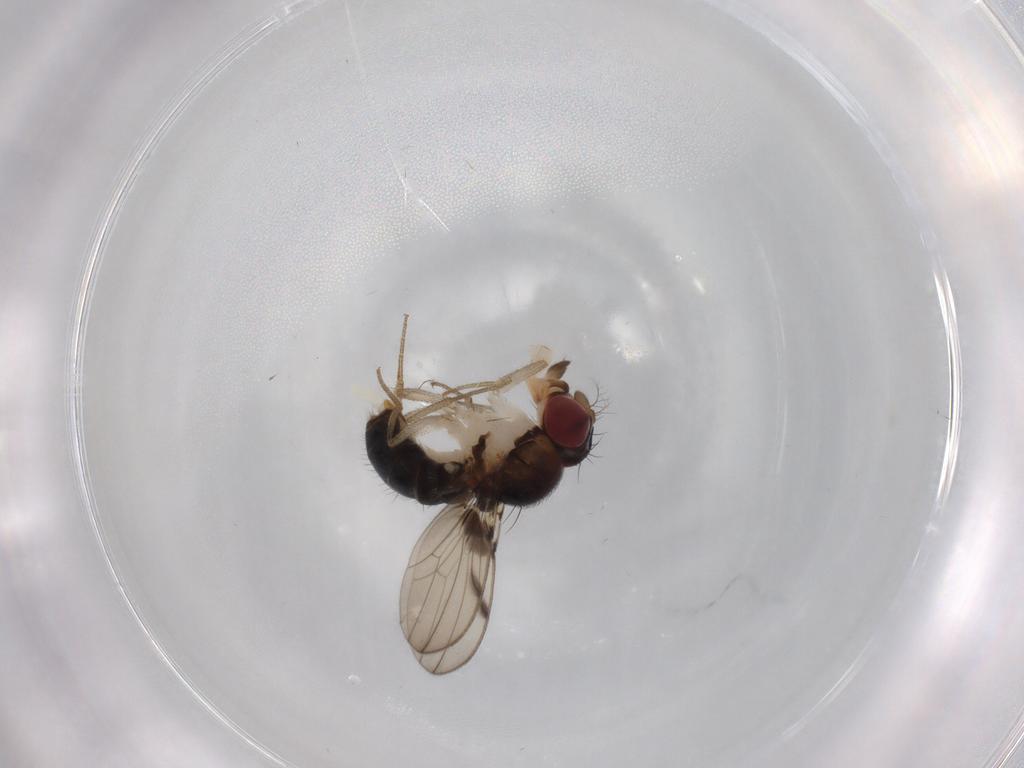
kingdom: Animalia
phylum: Arthropoda
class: Insecta
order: Diptera
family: Drosophilidae
